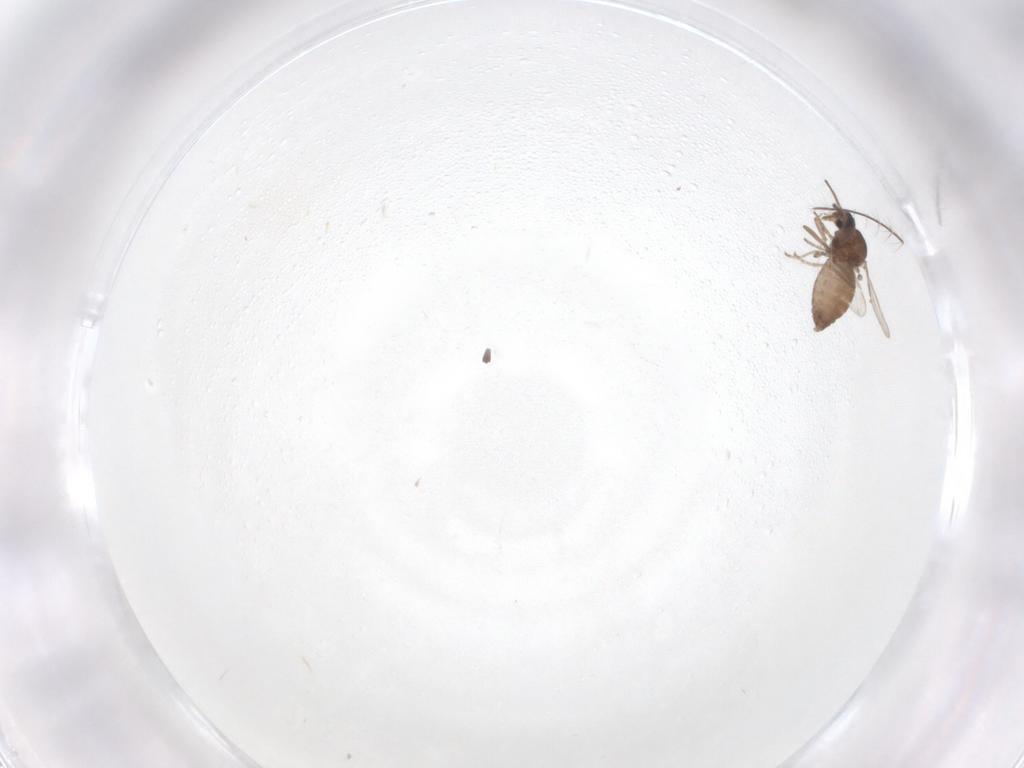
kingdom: Animalia
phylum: Arthropoda
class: Insecta
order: Diptera
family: Ceratopogonidae
